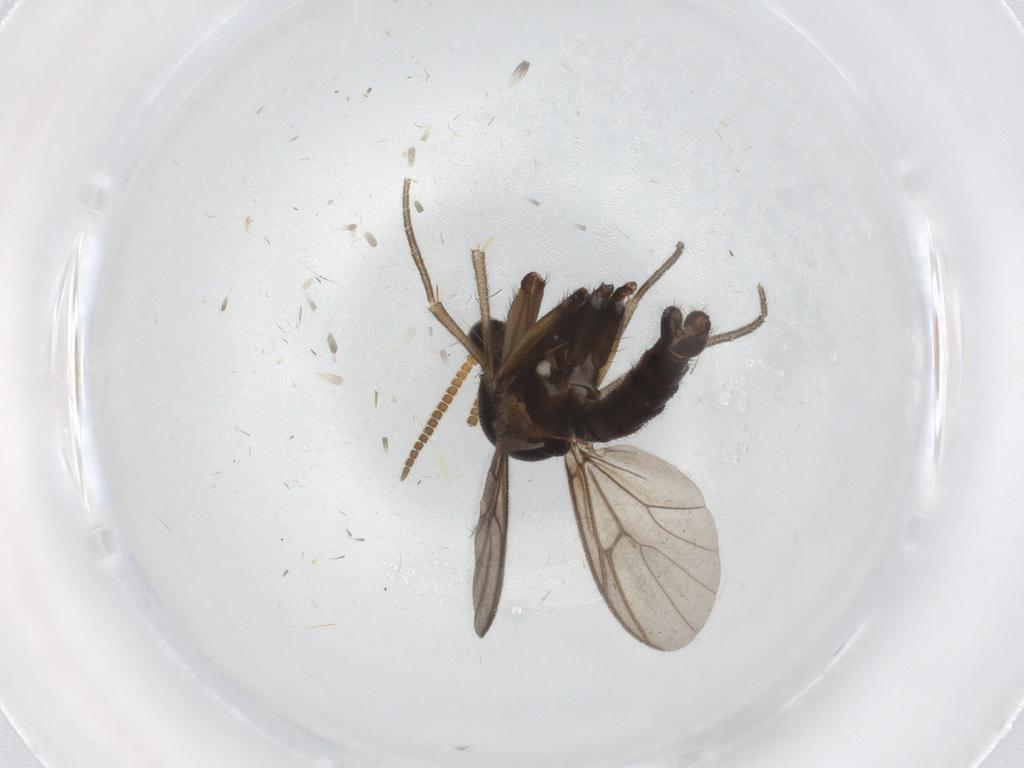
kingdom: Animalia
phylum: Arthropoda
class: Insecta
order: Diptera
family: Mycetophilidae
